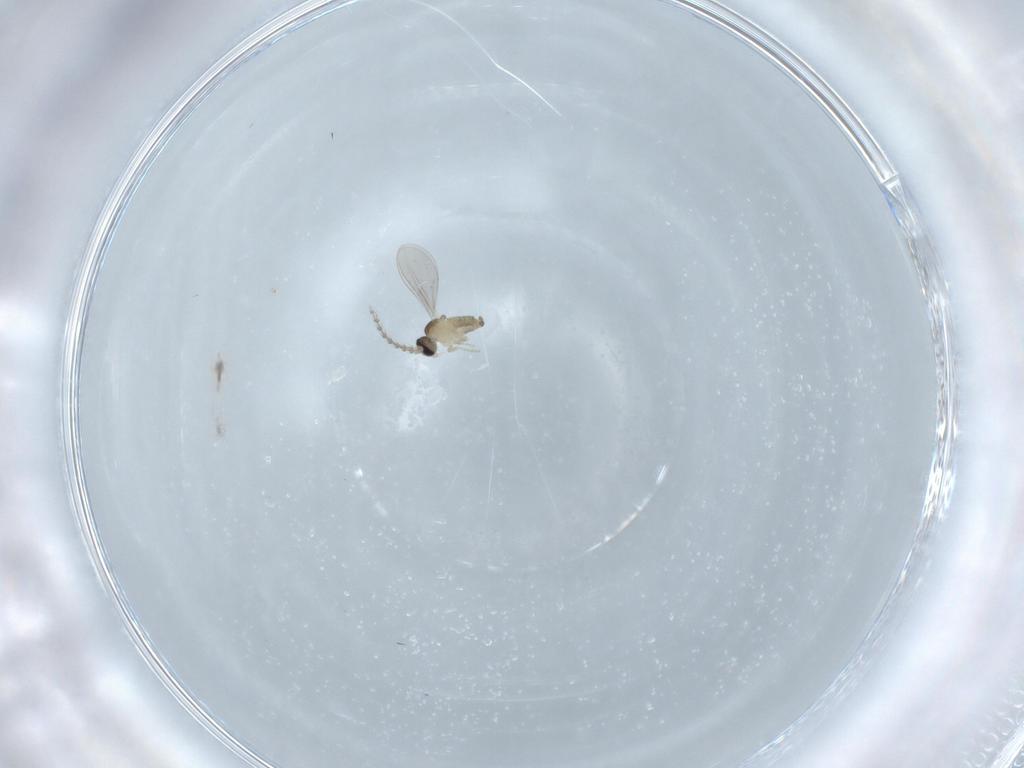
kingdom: Animalia
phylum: Arthropoda
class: Insecta
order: Diptera
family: Cecidomyiidae
